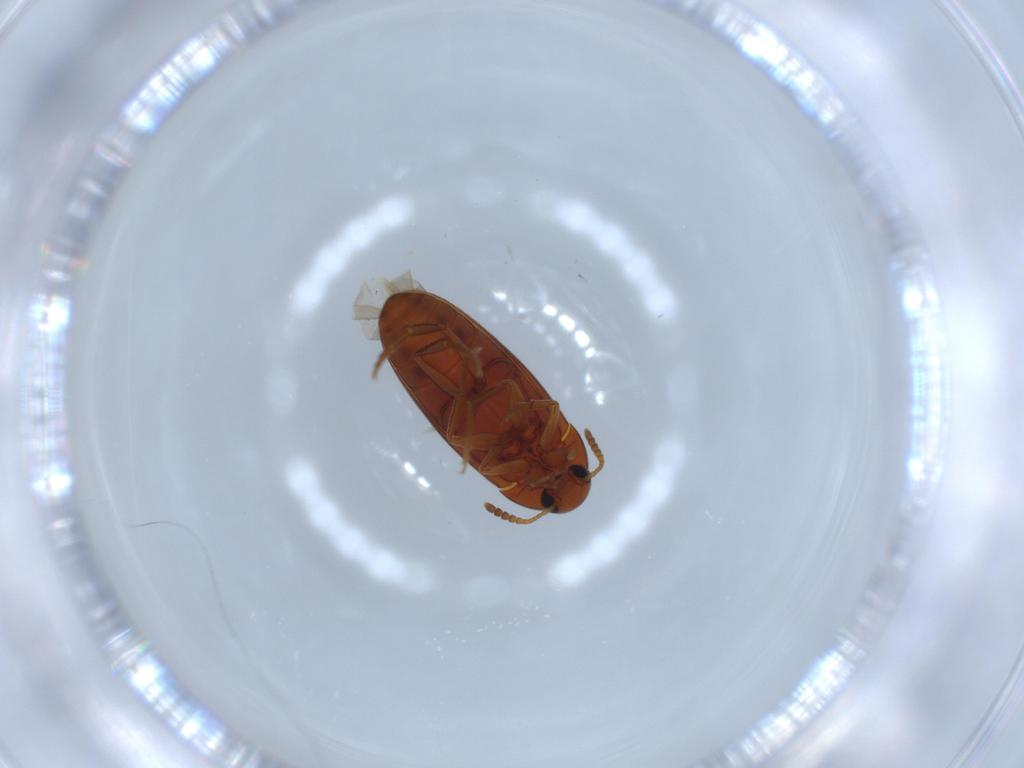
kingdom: Animalia
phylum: Arthropoda
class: Insecta
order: Coleoptera
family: Scraptiidae
